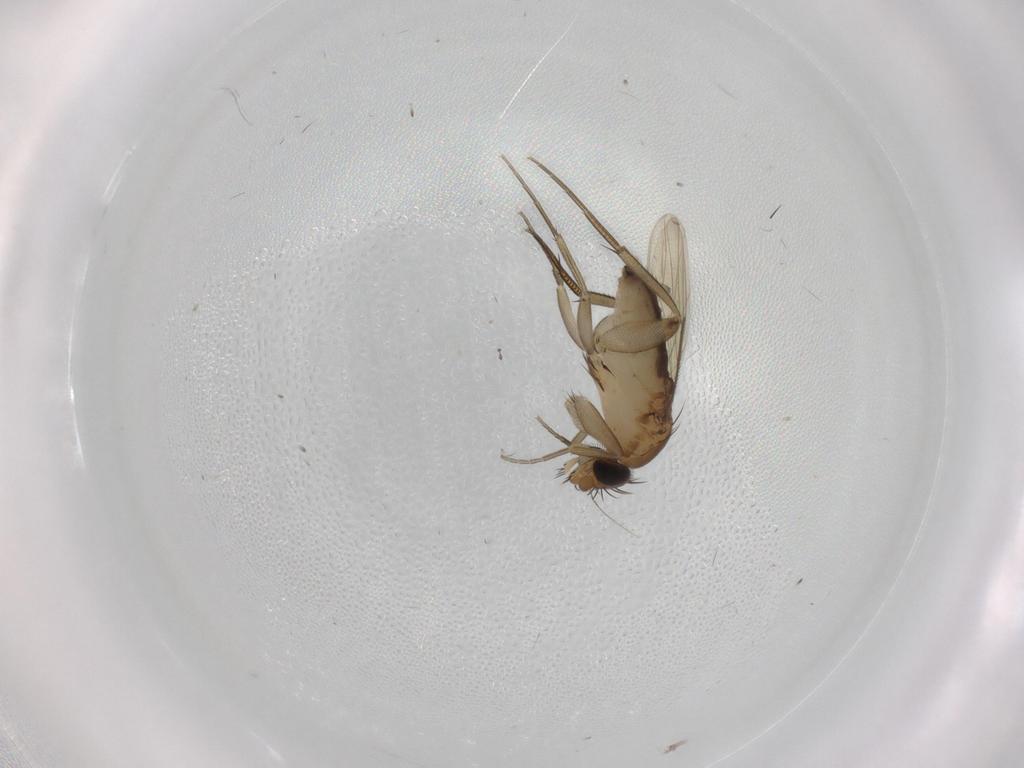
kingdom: Animalia
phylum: Arthropoda
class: Insecta
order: Diptera
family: Phoridae
